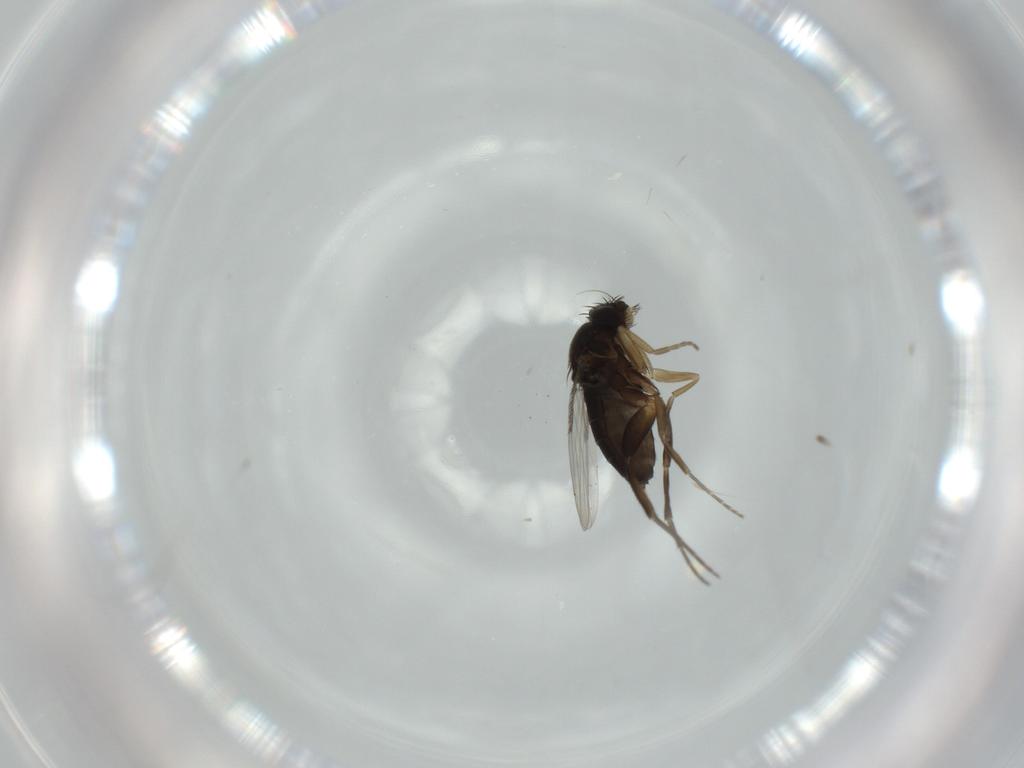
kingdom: Animalia
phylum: Arthropoda
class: Insecta
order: Diptera
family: Phoridae
